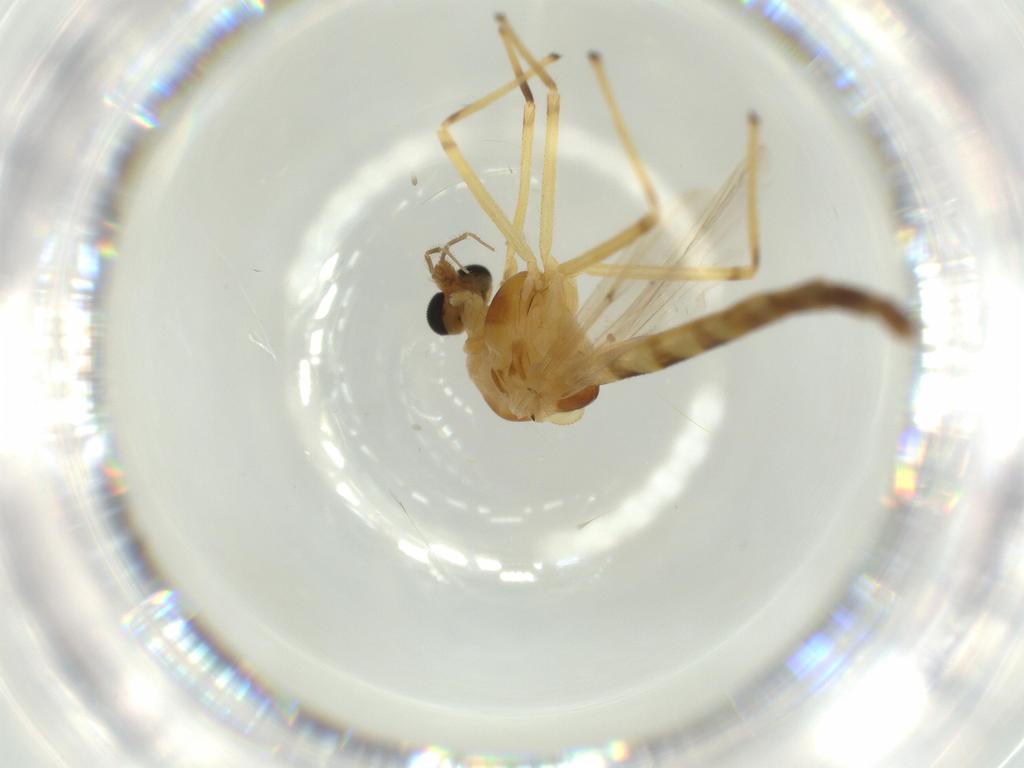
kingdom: Animalia
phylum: Arthropoda
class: Insecta
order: Diptera
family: Chironomidae
